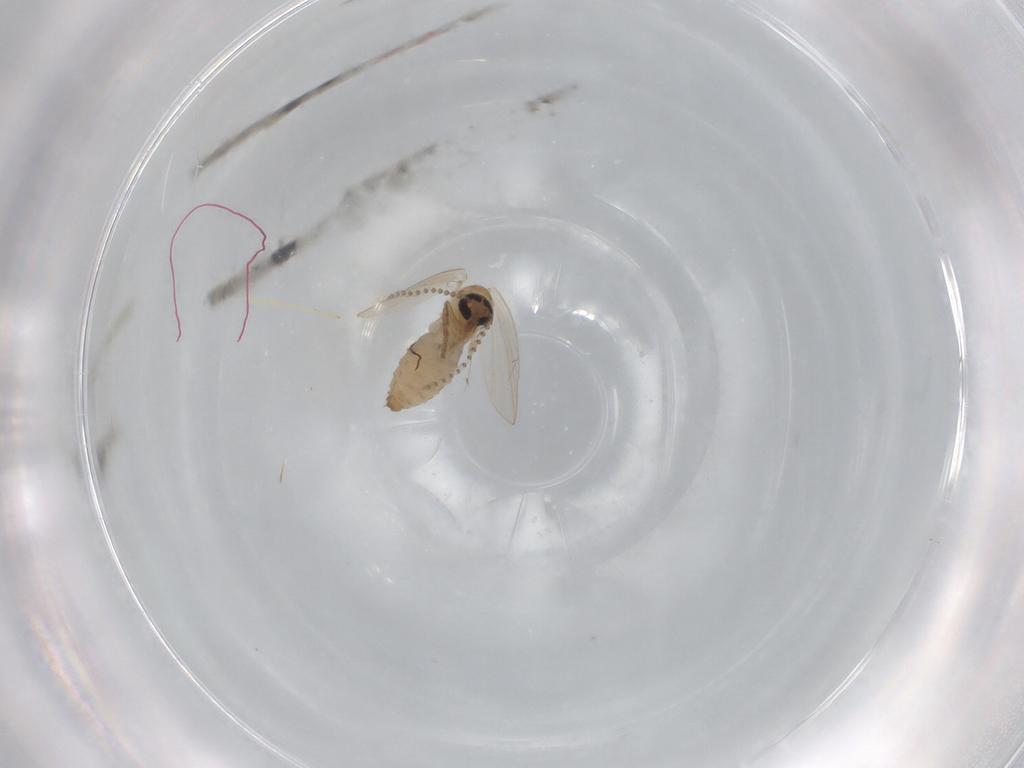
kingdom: Animalia
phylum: Arthropoda
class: Insecta
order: Diptera
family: Psychodidae
